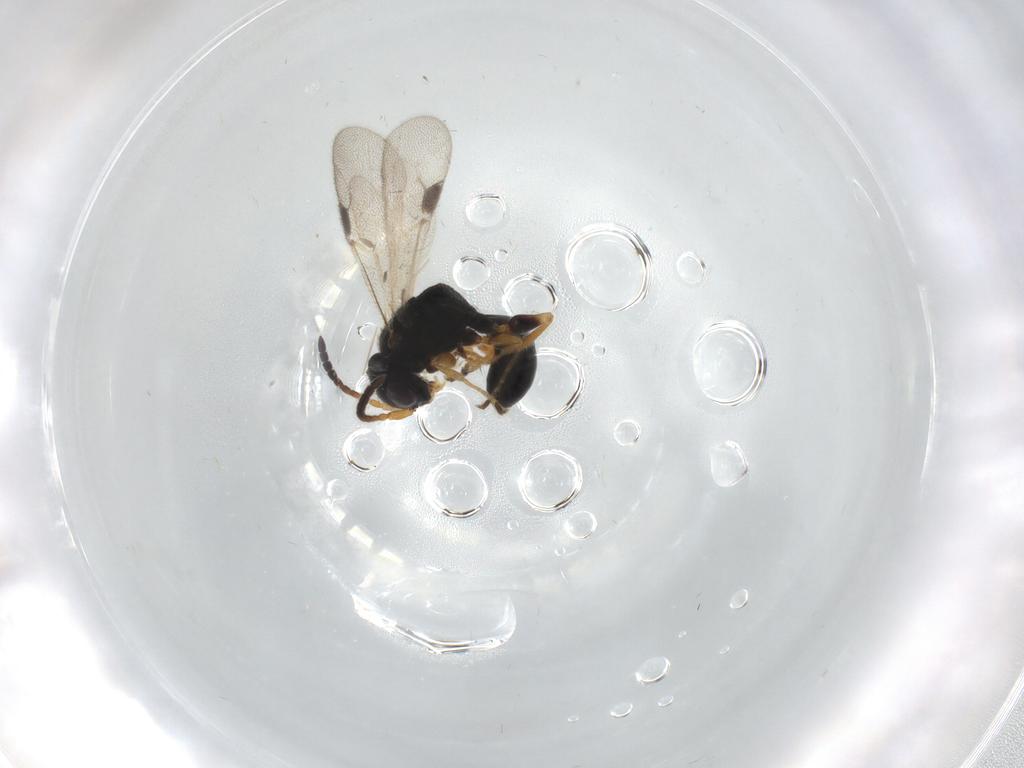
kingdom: Animalia
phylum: Arthropoda
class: Insecta
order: Hymenoptera
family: Dryinidae
